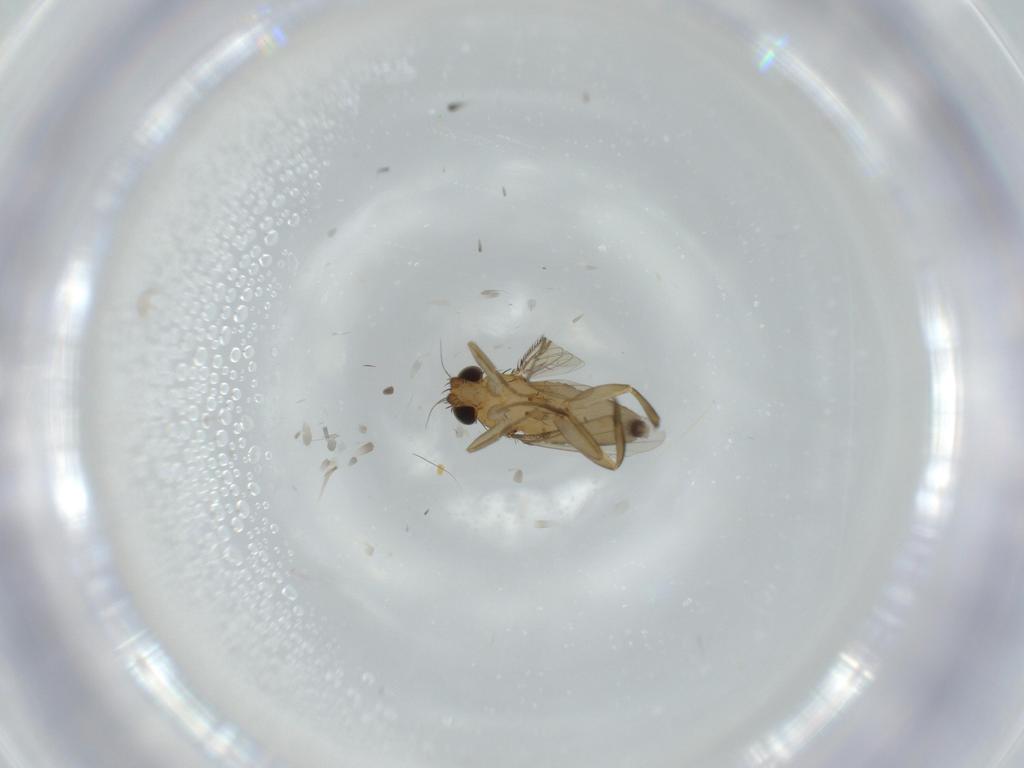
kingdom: Animalia
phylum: Arthropoda
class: Insecta
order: Diptera
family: Phoridae
